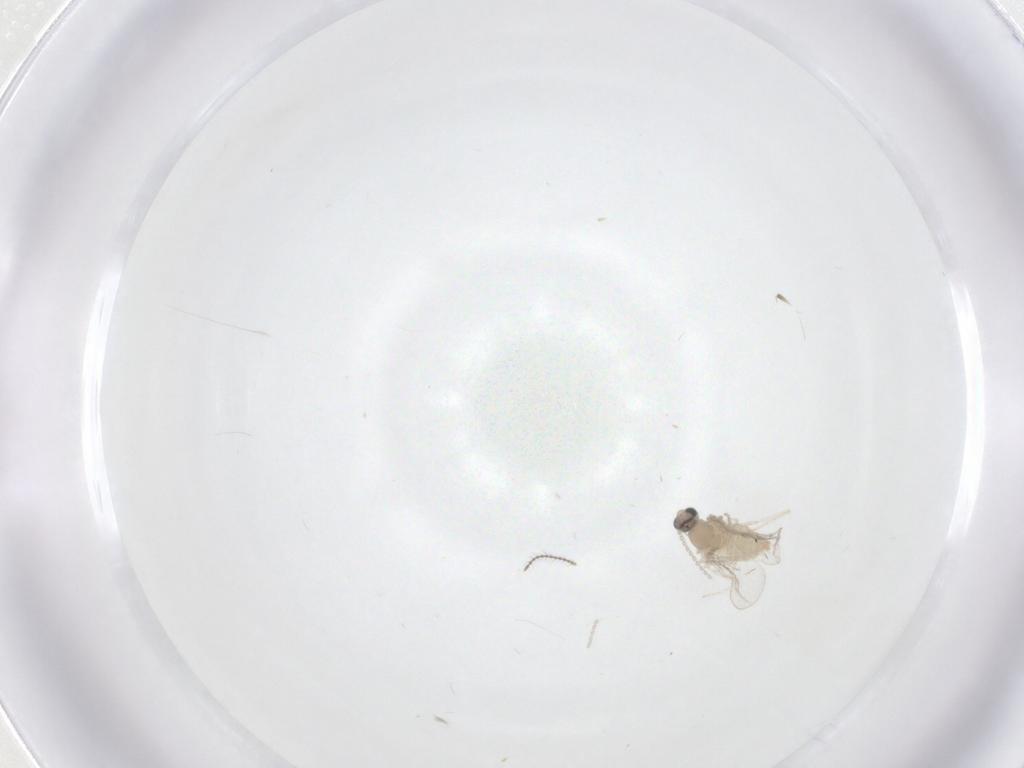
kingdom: Animalia
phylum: Arthropoda
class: Insecta
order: Diptera
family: Cecidomyiidae
